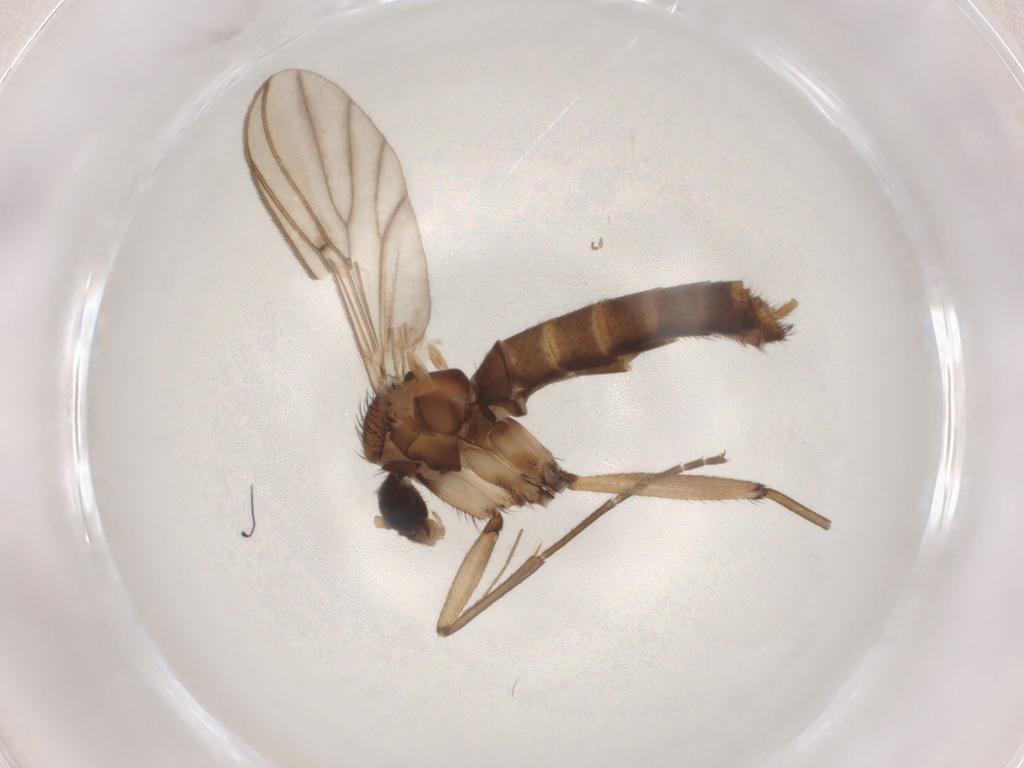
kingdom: Animalia
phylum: Arthropoda
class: Insecta
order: Diptera
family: Mycetophilidae
